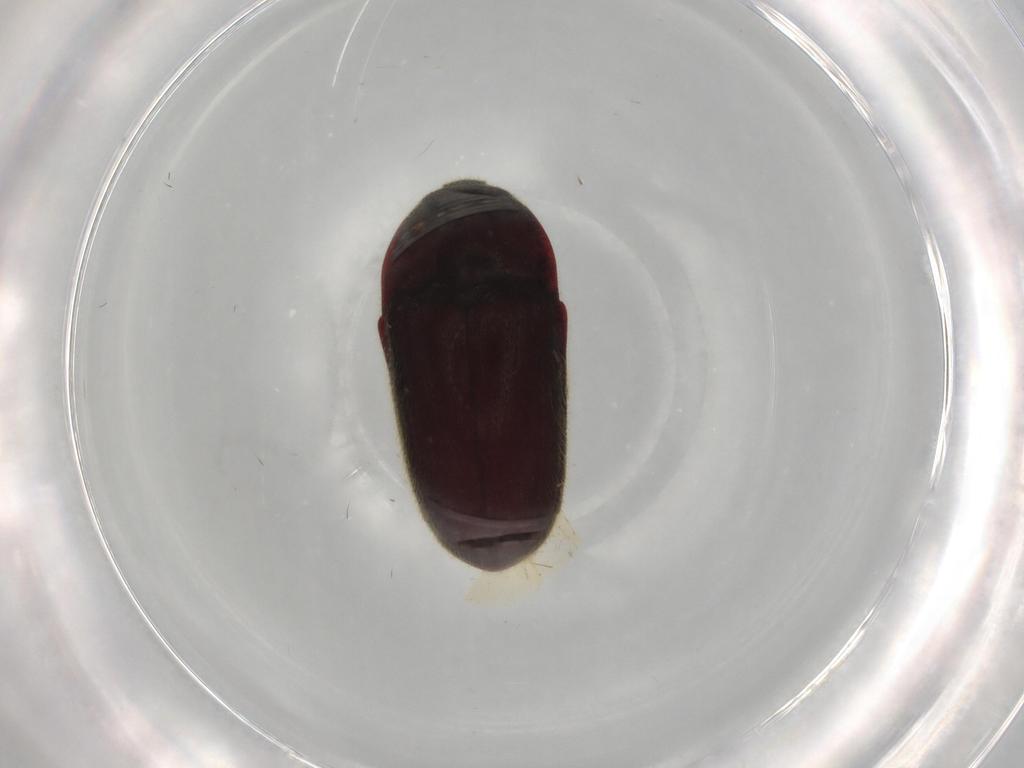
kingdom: Animalia
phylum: Arthropoda
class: Insecta
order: Coleoptera
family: Throscidae
